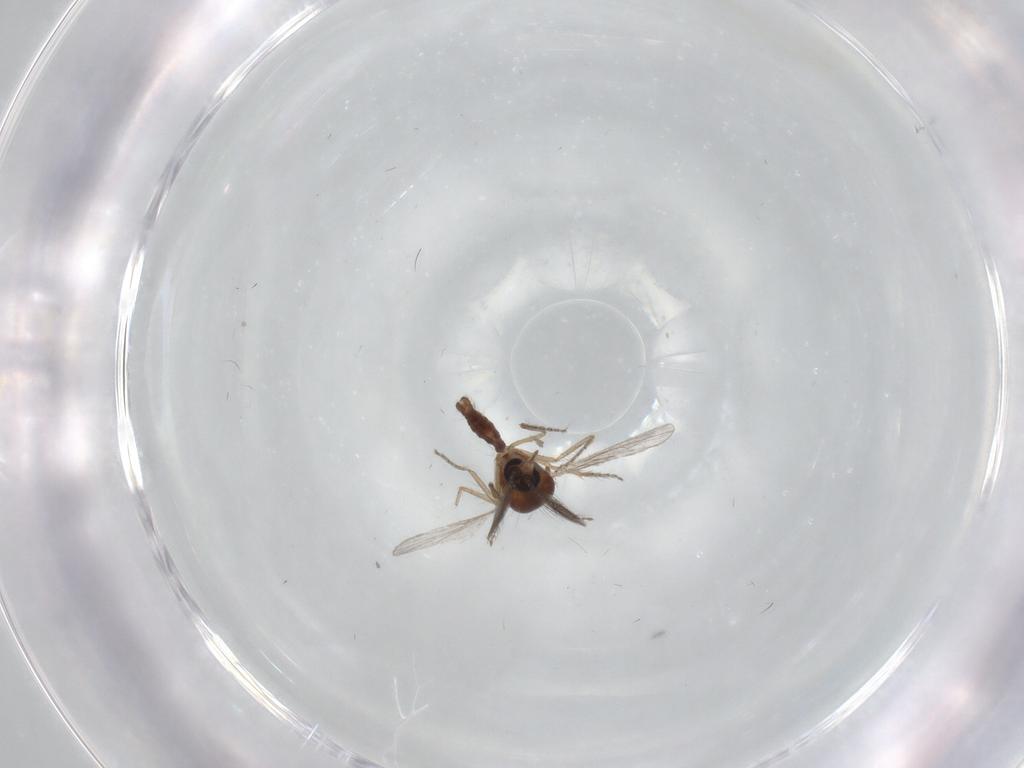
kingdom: Animalia
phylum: Arthropoda
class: Insecta
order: Diptera
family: Ceratopogonidae
